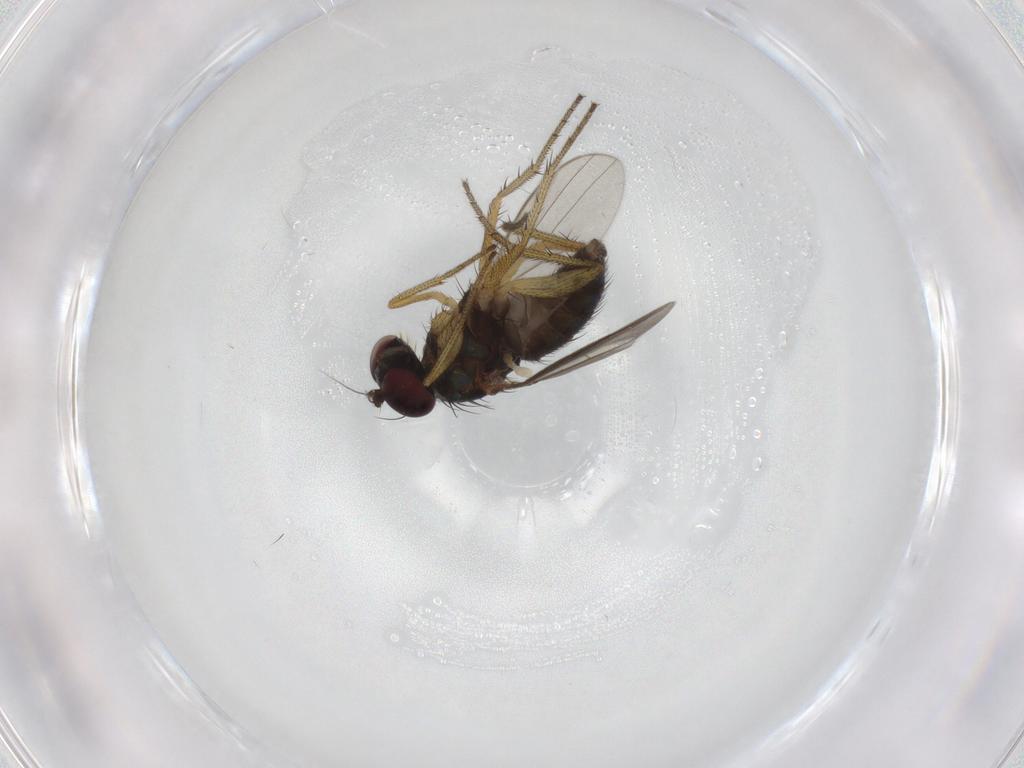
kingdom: Animalia
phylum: Arthropoda
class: Insecta
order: Diptera
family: Dolichopodidae
